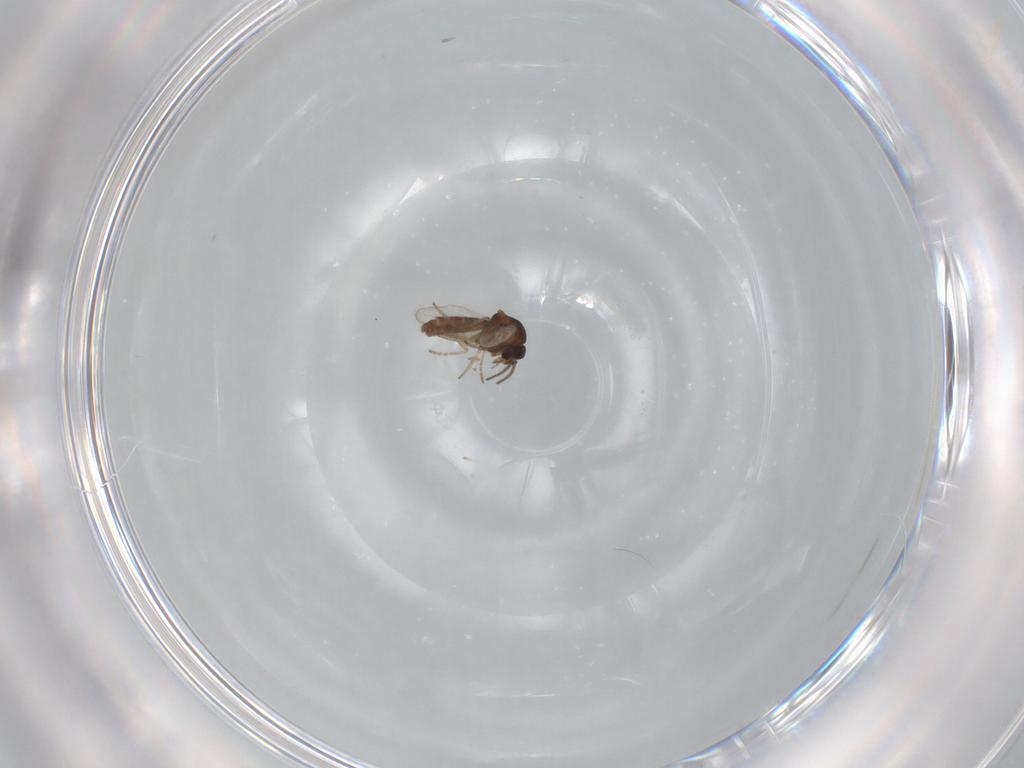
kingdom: Animalia
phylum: Arthropoda
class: Insecta
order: Diptera
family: Ceratopogonidae
